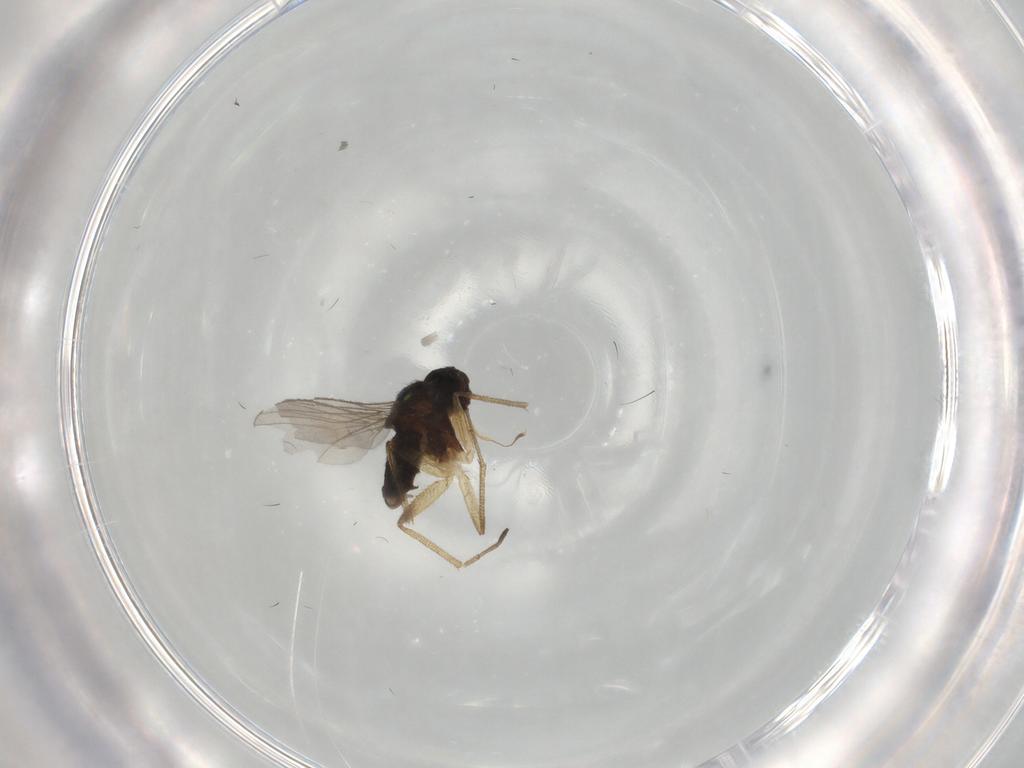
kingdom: Animalia
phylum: Arthropoda
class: Insecta
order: Diptera
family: Dolichopodidae
